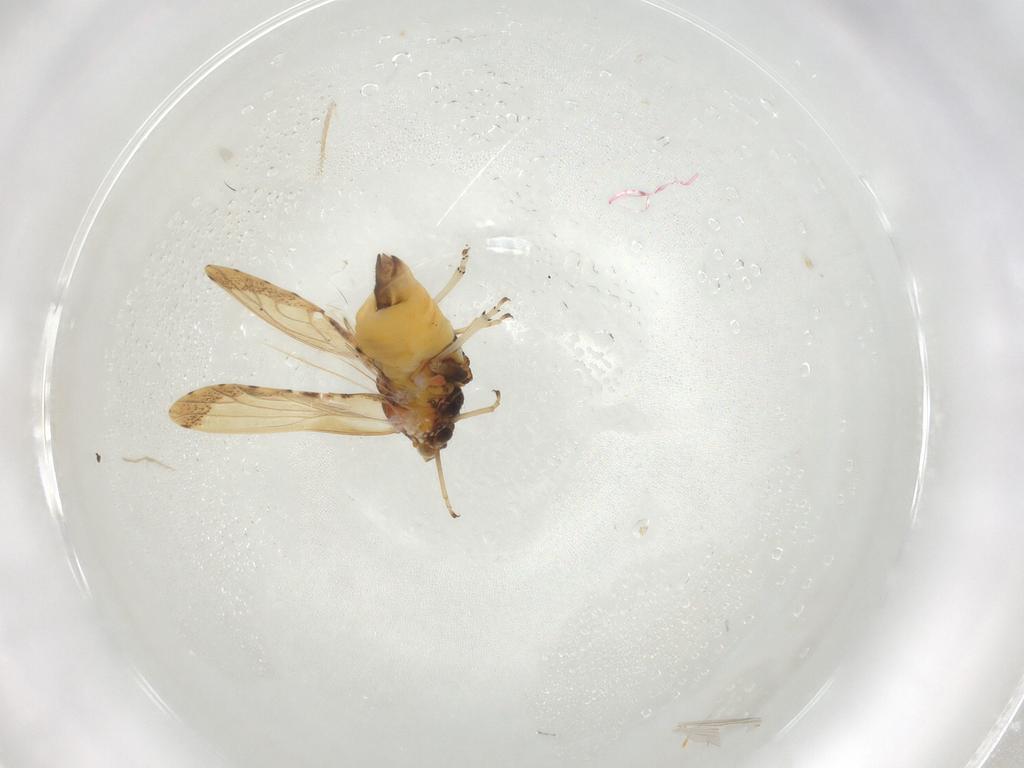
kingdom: Animalia
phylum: Arthropoda
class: Insecta
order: Hemiptera
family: Psyllidae
